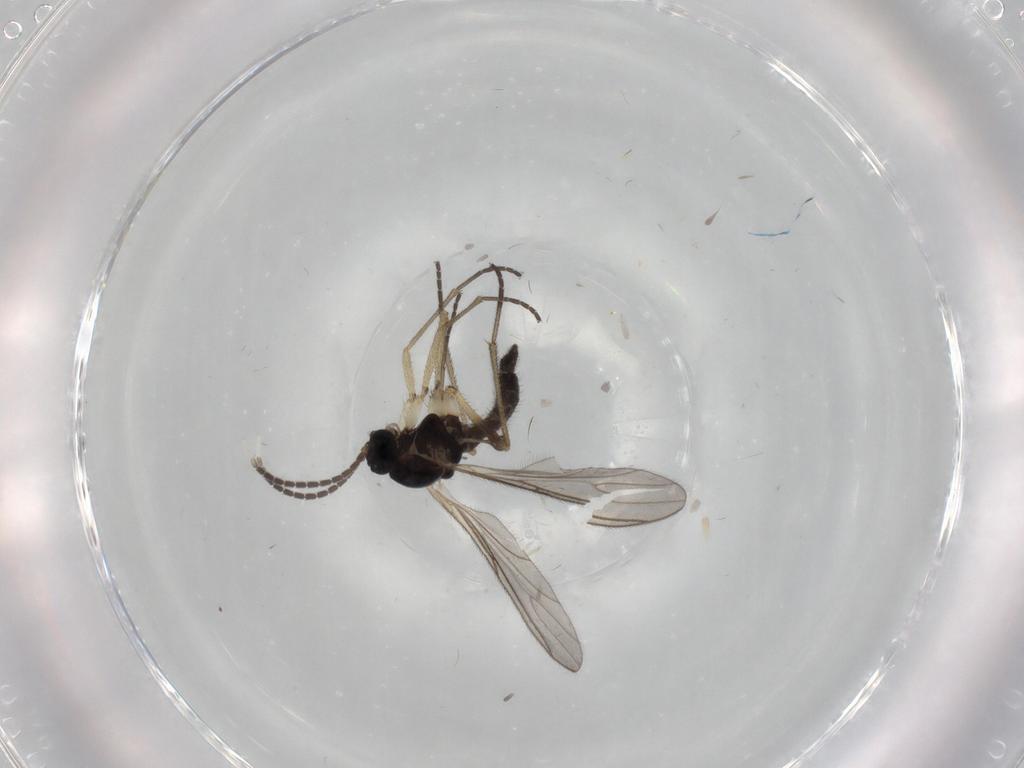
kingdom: Animalia
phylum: Arthropoda
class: Insecta
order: Diptera
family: Sciaridae
